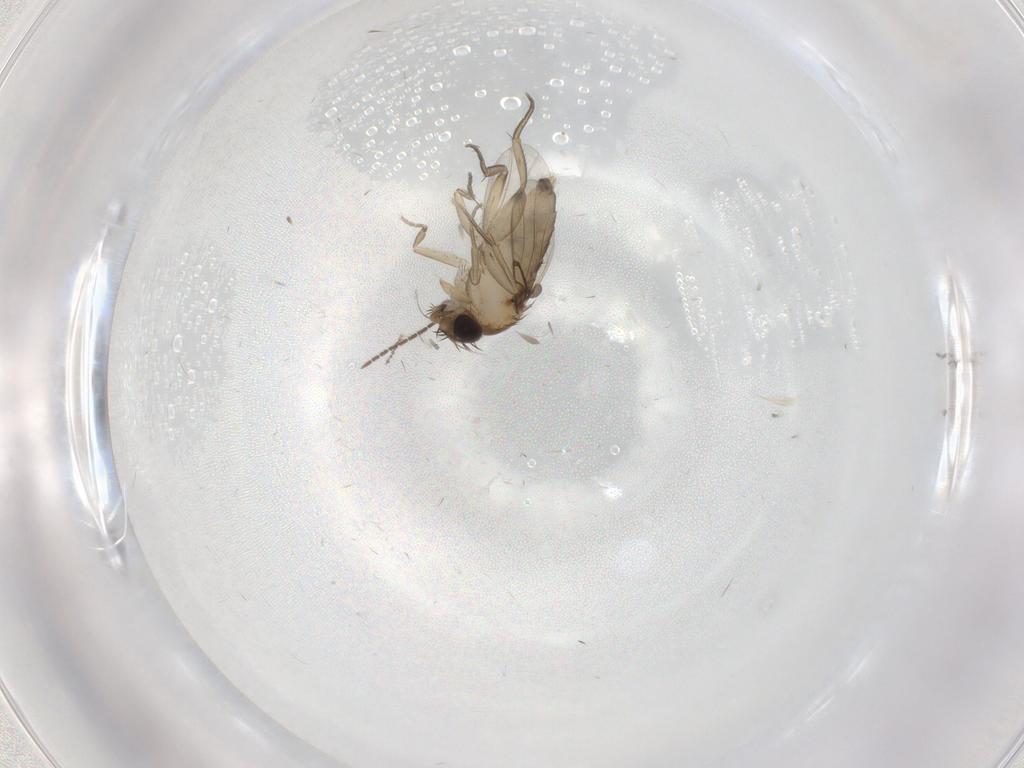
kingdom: Animalia
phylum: Arthropoda
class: Insecta
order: Diptera
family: Phoridae
